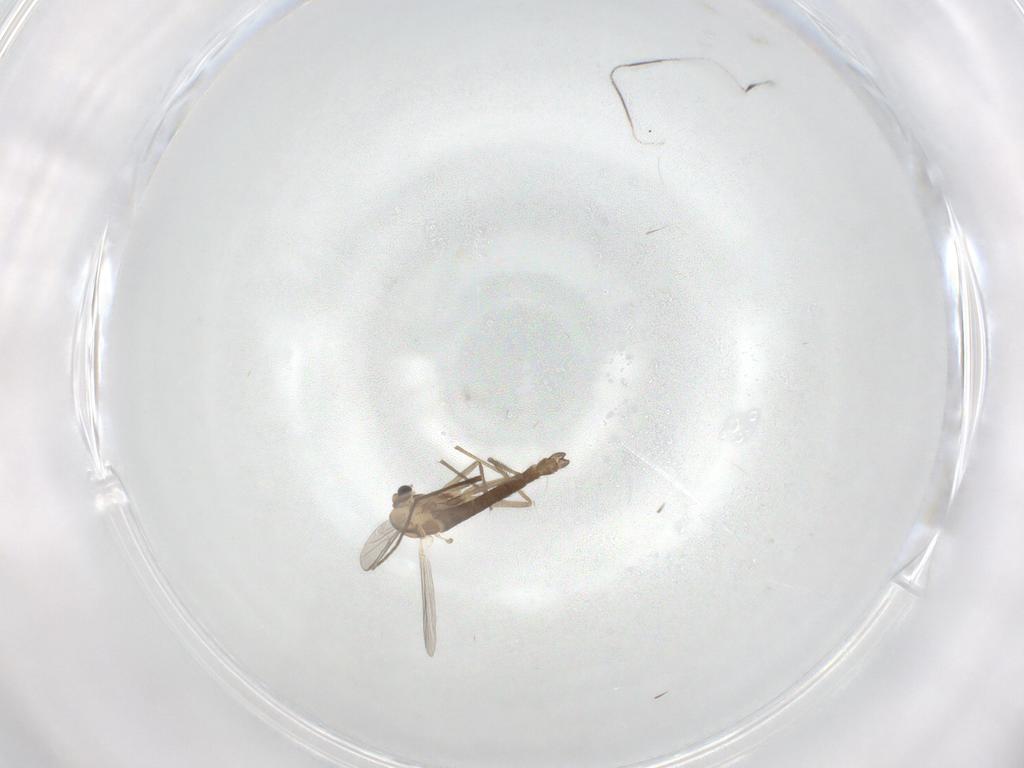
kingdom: Animalia
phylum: Arthropoda
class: Insecta
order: Diptera
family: Chironomidae
